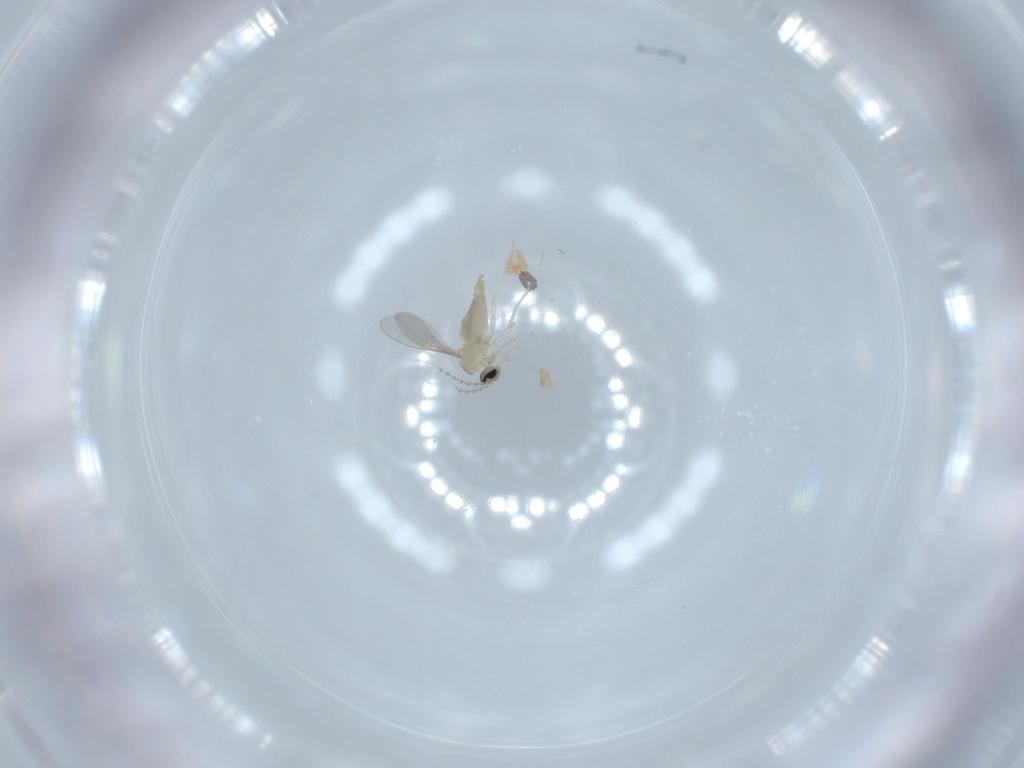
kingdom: Animalia
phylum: Arthropoda
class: Insecta
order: Diptera
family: Cecidomyiidae
